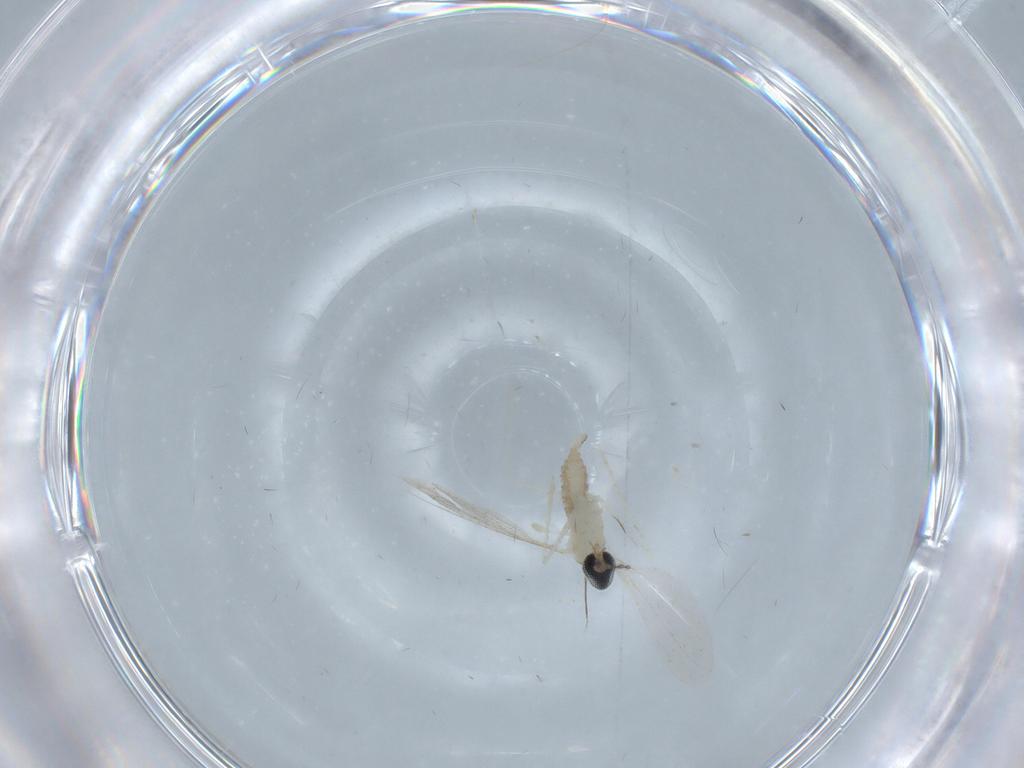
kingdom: Animalia
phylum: Arthropoda
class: Insecta
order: Diptera
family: Cecidomyiidae
